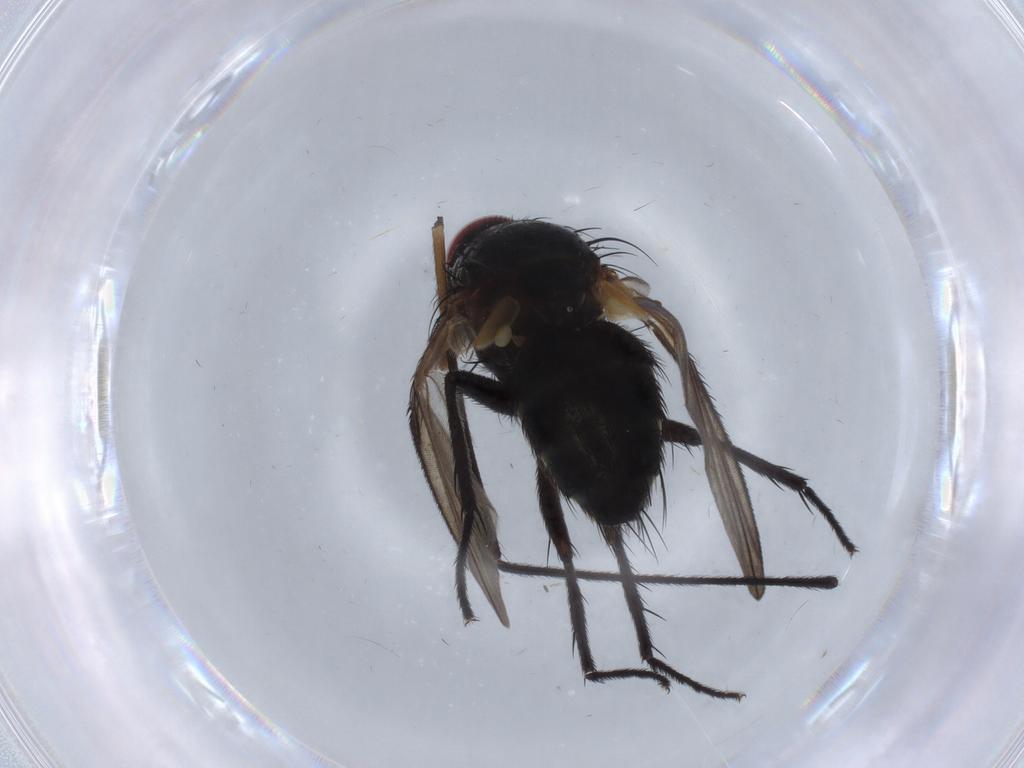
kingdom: Animalia
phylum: Arthropoda
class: Insecta
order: Diptera
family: Limoniidae
